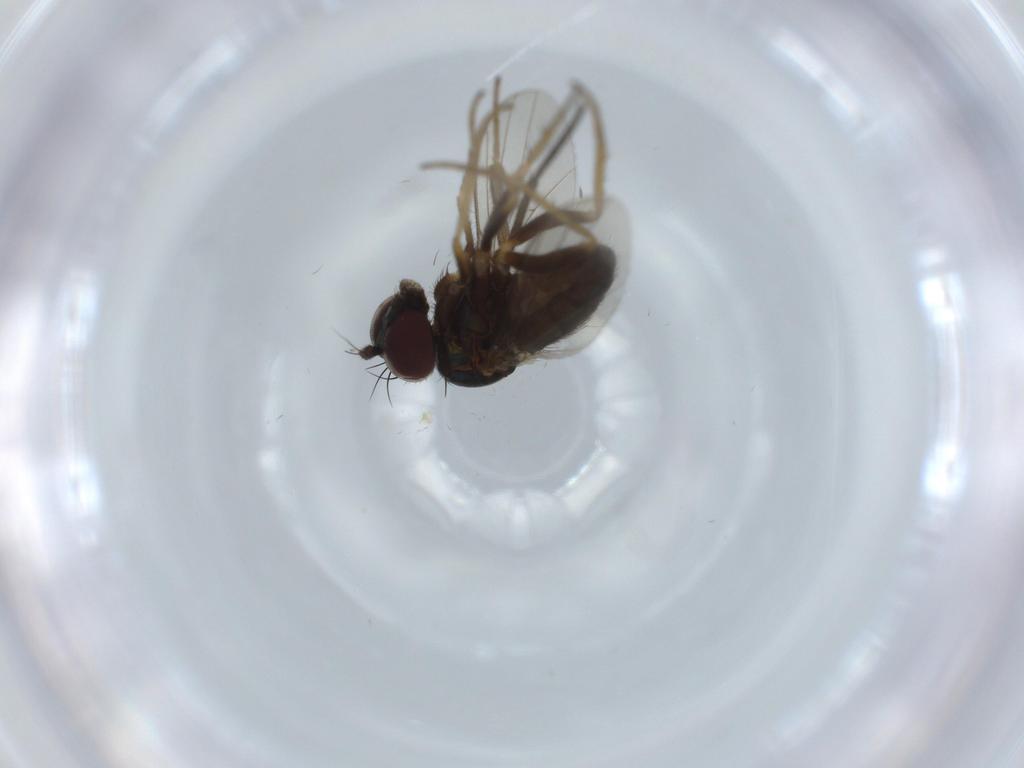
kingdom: Animalia
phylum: Arthropoda
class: Insecta
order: Diptera
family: Sciaridae
